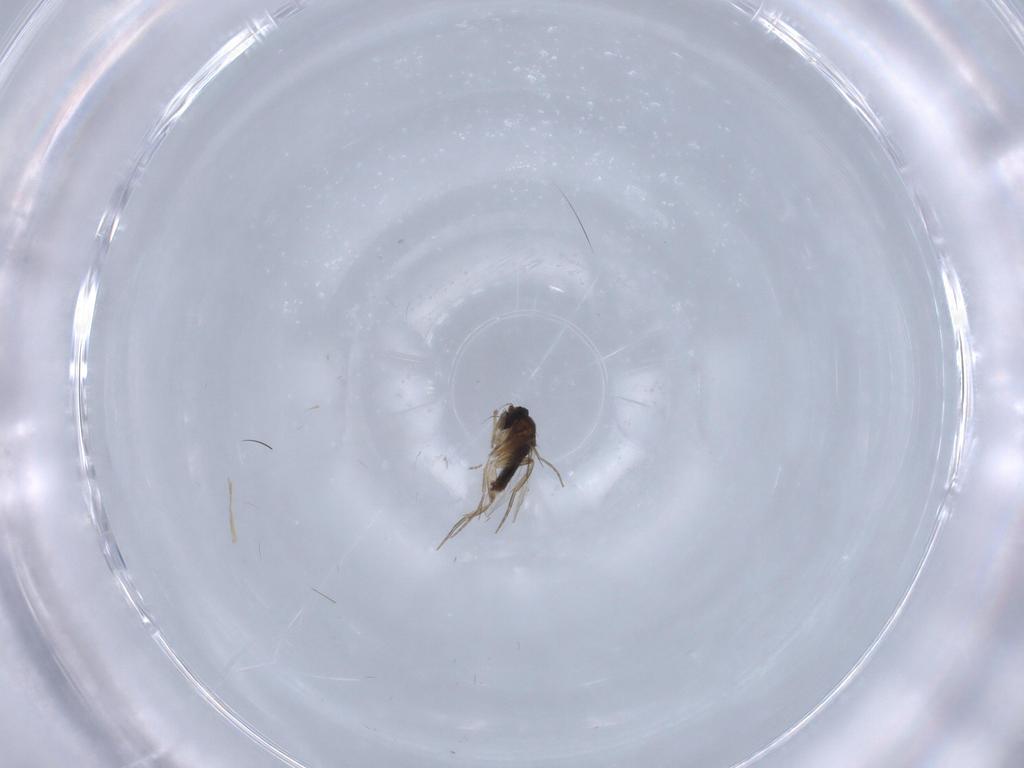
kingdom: Animalia
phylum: Arthropoda
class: Insecta
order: Diptera
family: Phoridae
